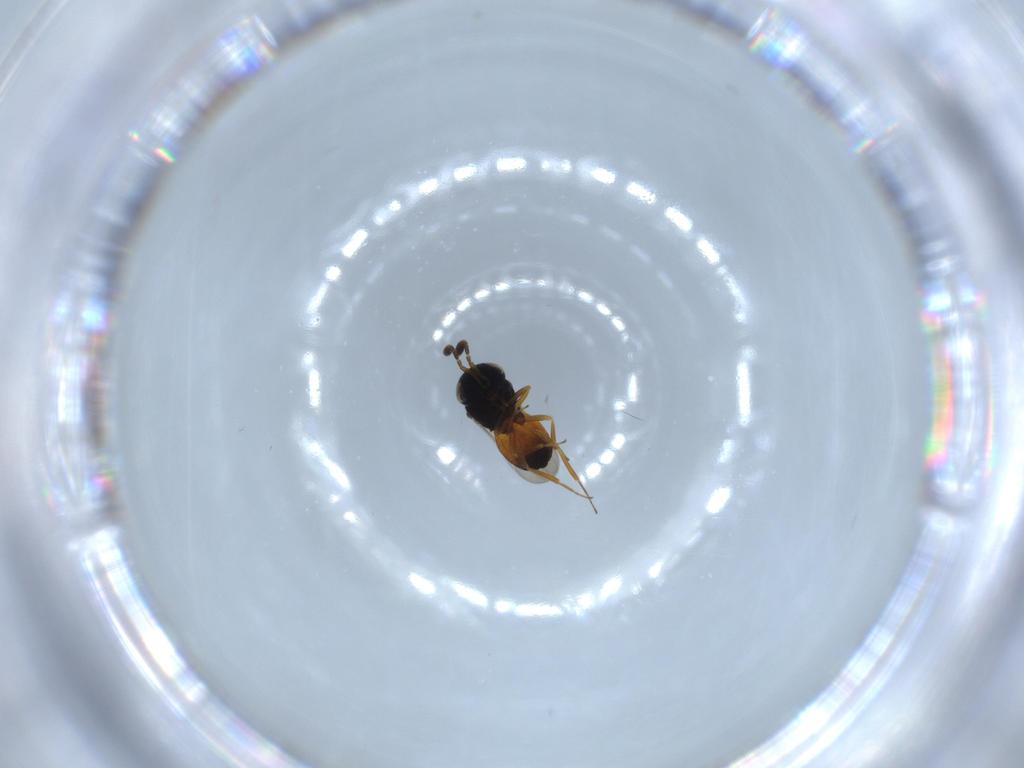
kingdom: Animalia
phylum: Arthropoda
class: Insecta
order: Hymenoptera
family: Scelionidae
